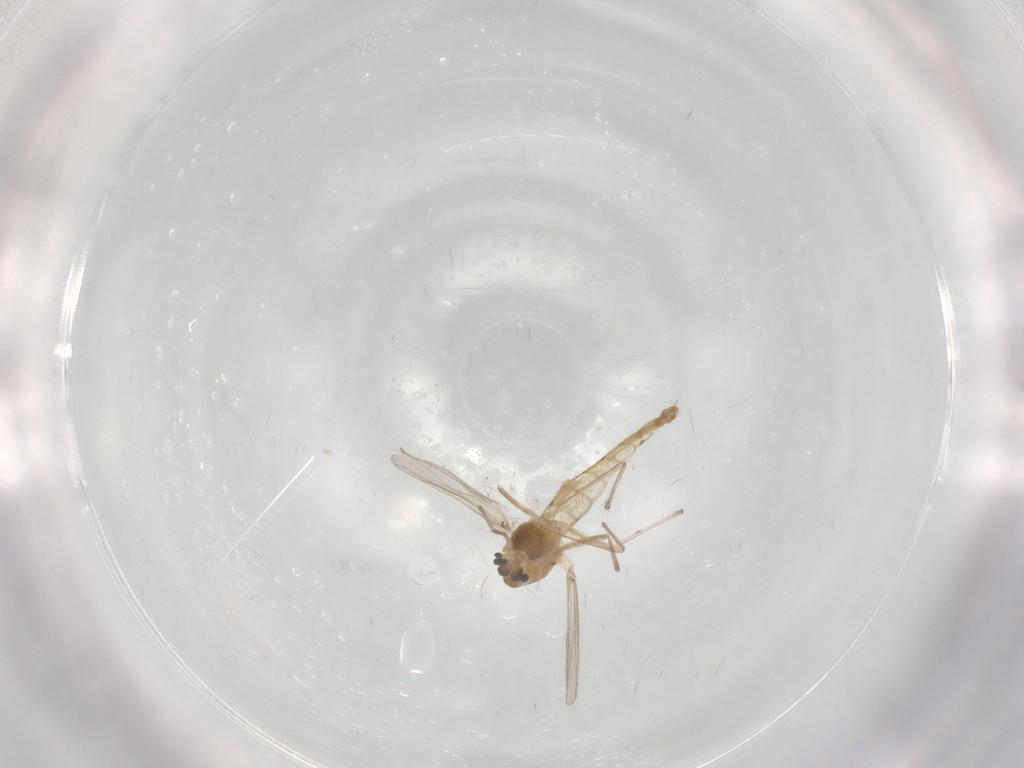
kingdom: Animalia
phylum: Arthropoda
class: Insecta
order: Diptera
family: Chironomidae
